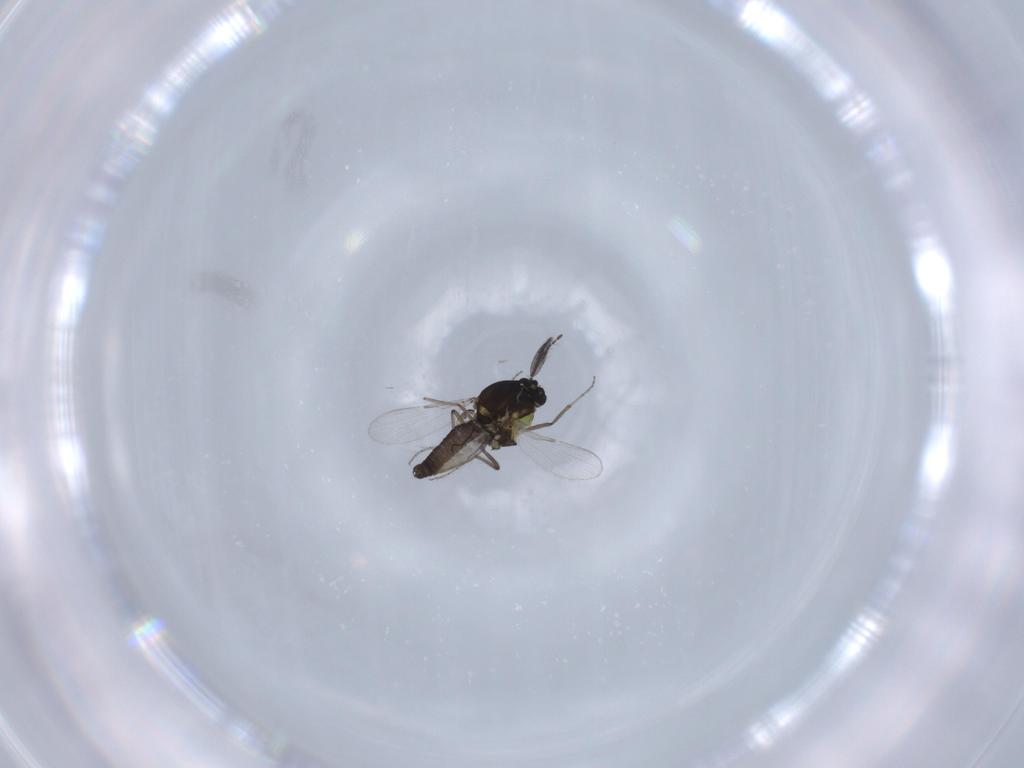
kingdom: Animalia
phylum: Arthropoda
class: Insecta
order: Diptera
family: Ceratopogonidae
